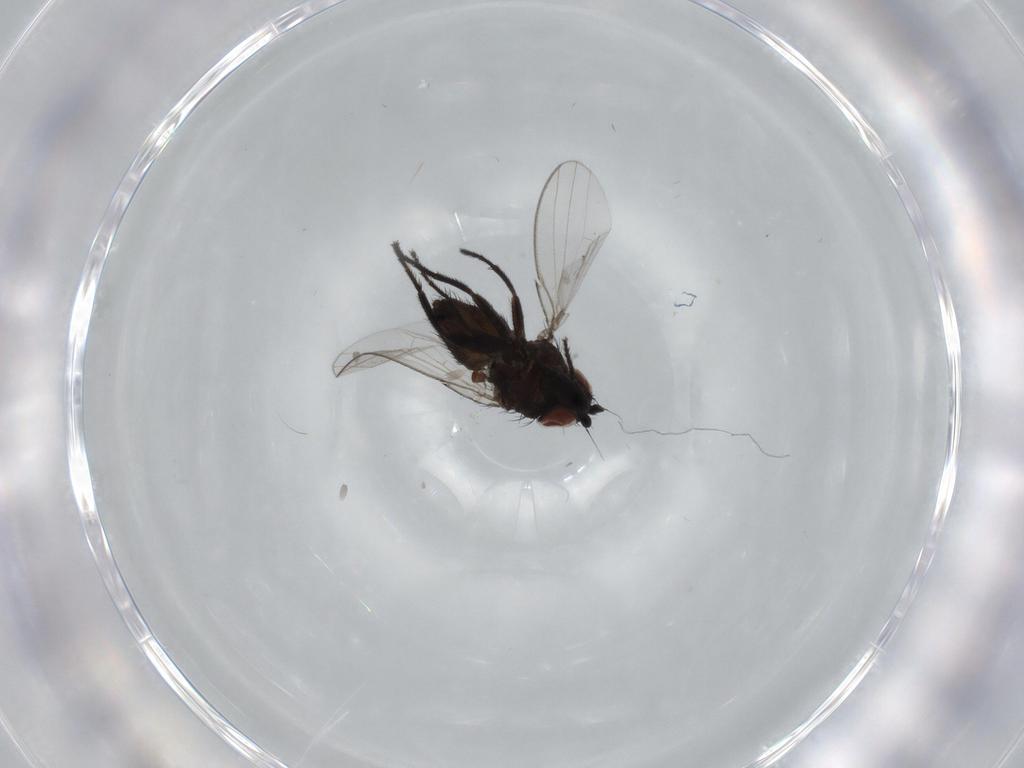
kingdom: Animalia
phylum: Arthropoda
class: Insecta
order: Diptera
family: Milichiidae
